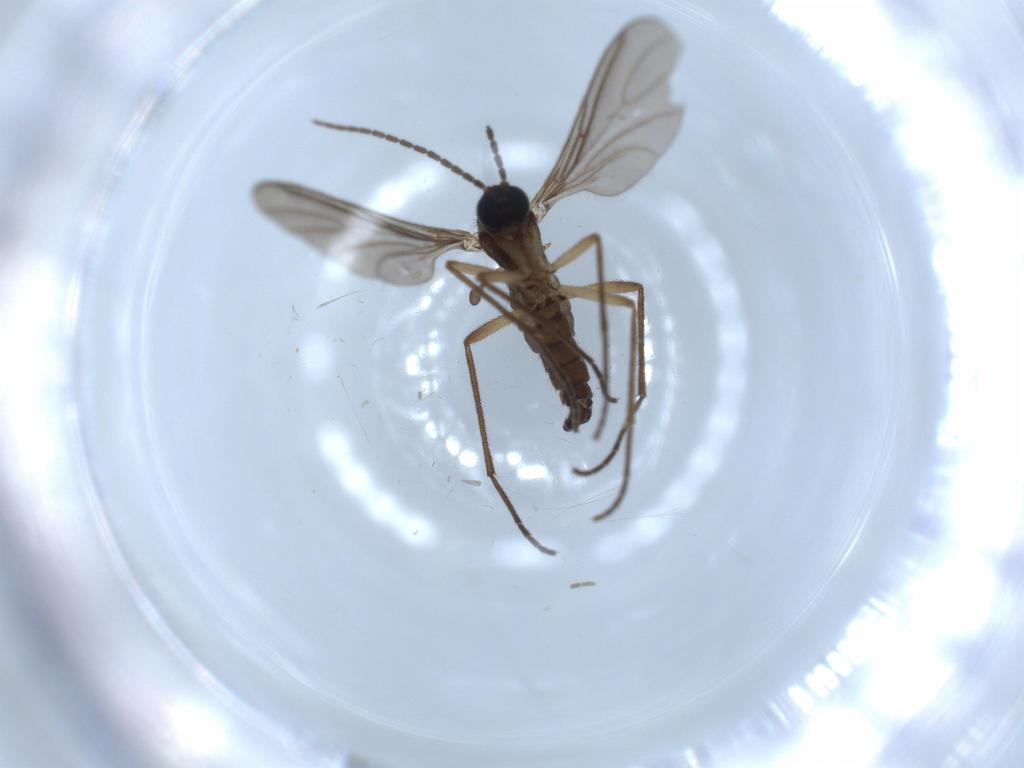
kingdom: Animalia
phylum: Arthropoda
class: Insecta
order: Diptera
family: Sciaridae
